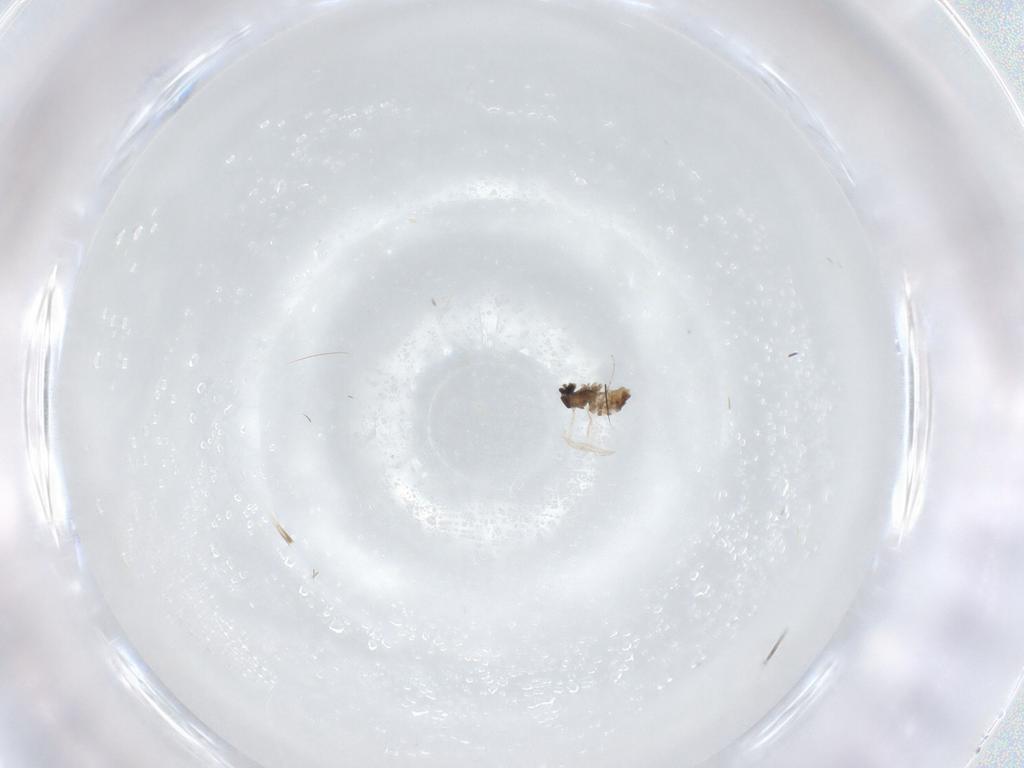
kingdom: Animalia
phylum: Arthropoda
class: Insecta
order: Diptera
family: Cecidomyiidae
